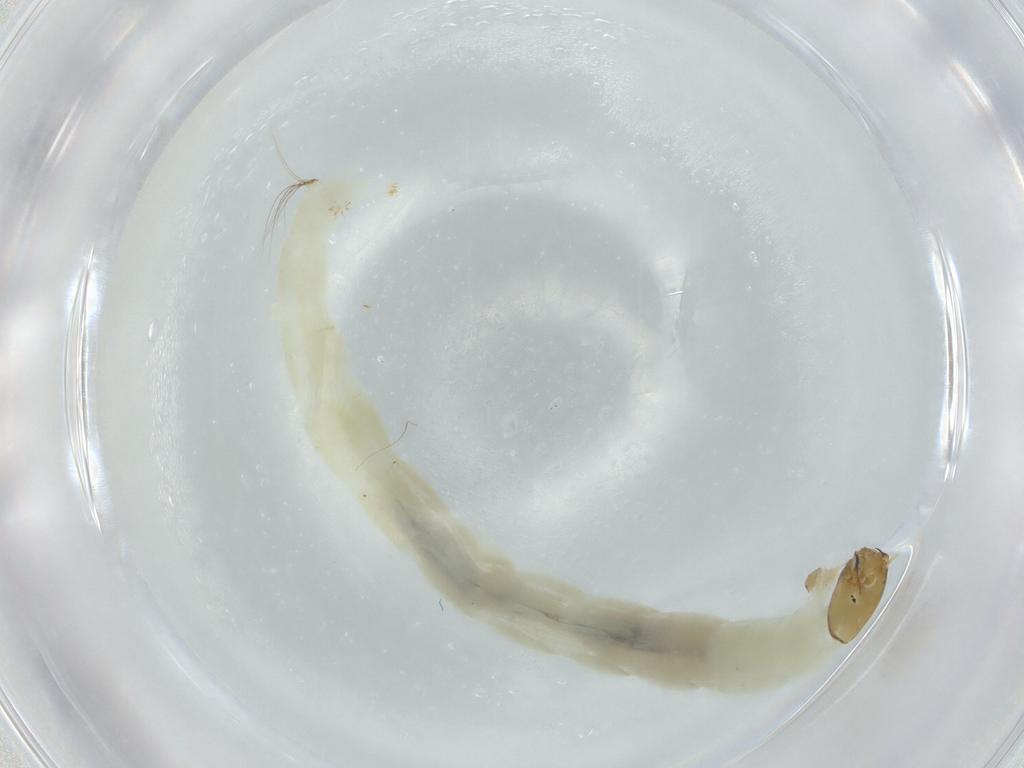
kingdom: Animalia
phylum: Arthropoda
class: Insecta
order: Diptera
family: Chironomidae
